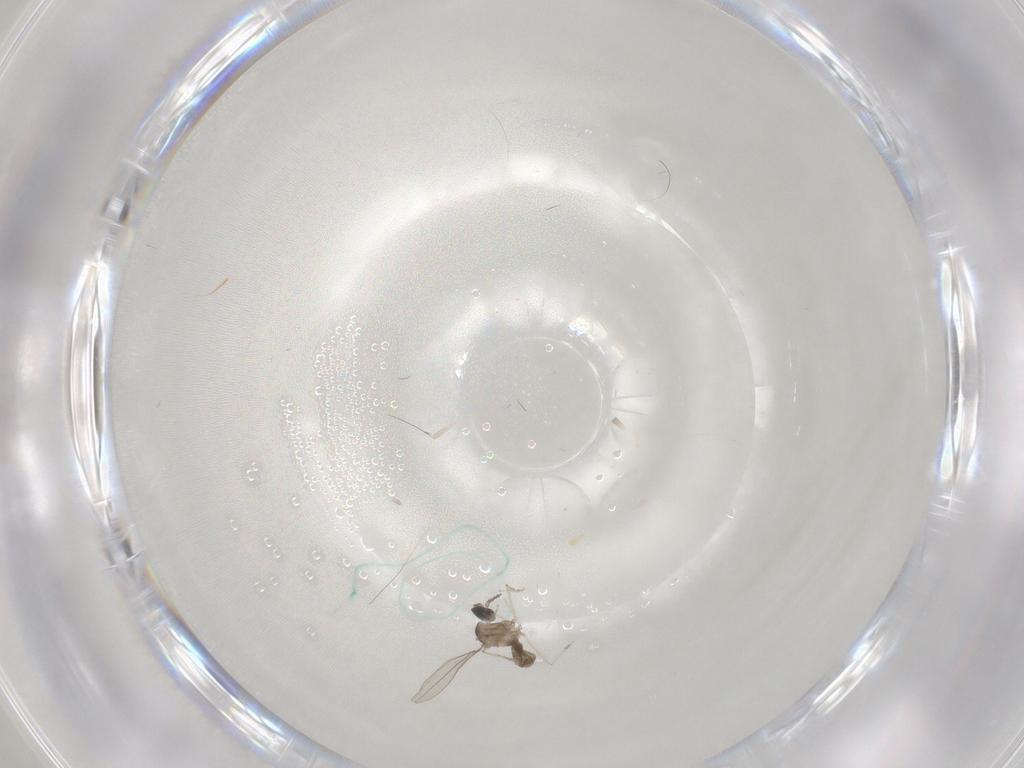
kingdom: Animalia
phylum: Arthropoda
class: Insecta
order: Diptera
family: Cecidomyiidae
